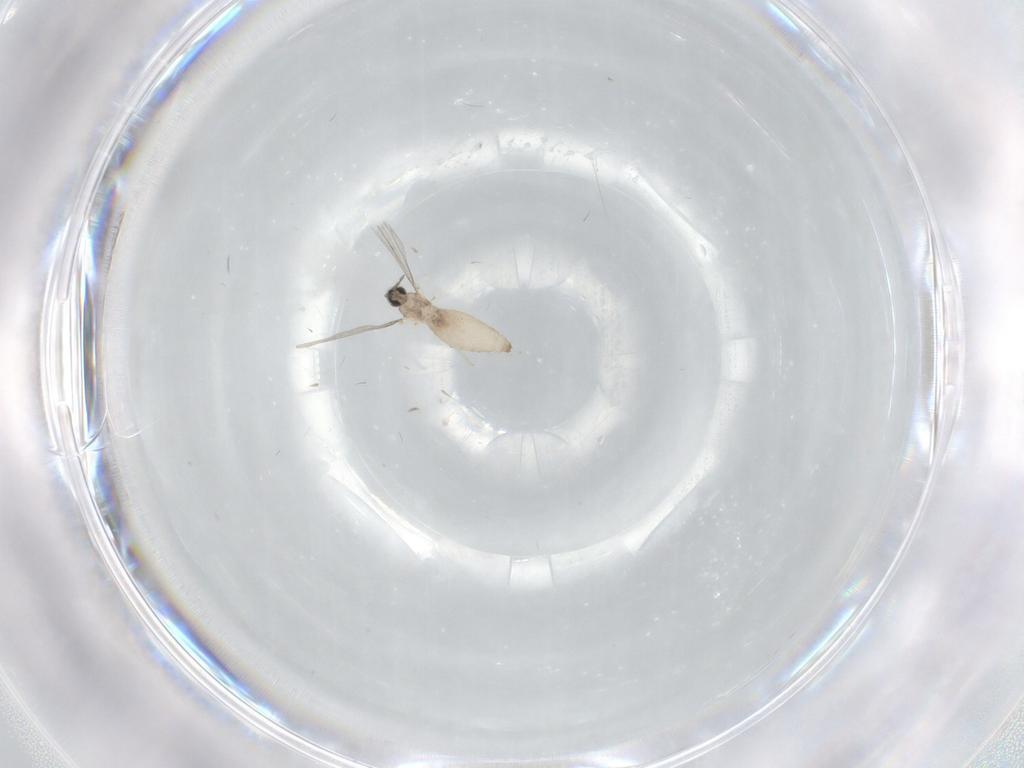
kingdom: Animalia
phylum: Arthropoda
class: Insecta
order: Diptera
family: Cecidomyiidae
